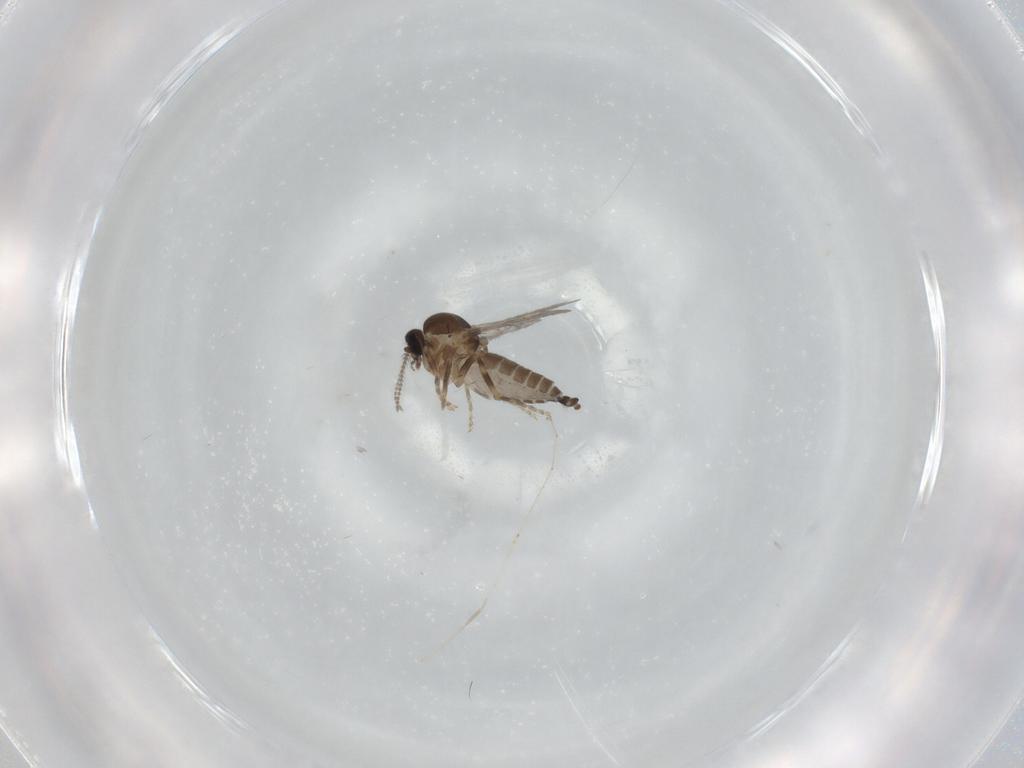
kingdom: Animalia
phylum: Arthropoda
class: Insecta
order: Diptera
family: Ceratopogonidae
